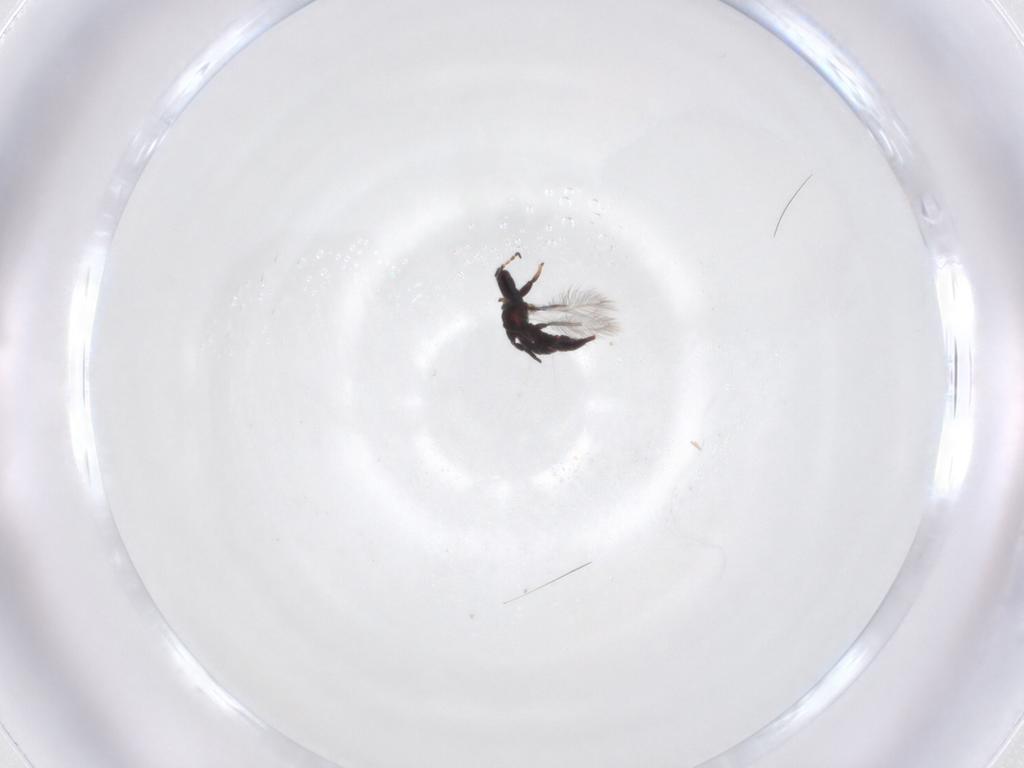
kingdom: Animalia
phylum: Arthropoda
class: Insecta
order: Thysanoptera
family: Phlaeothripidae
